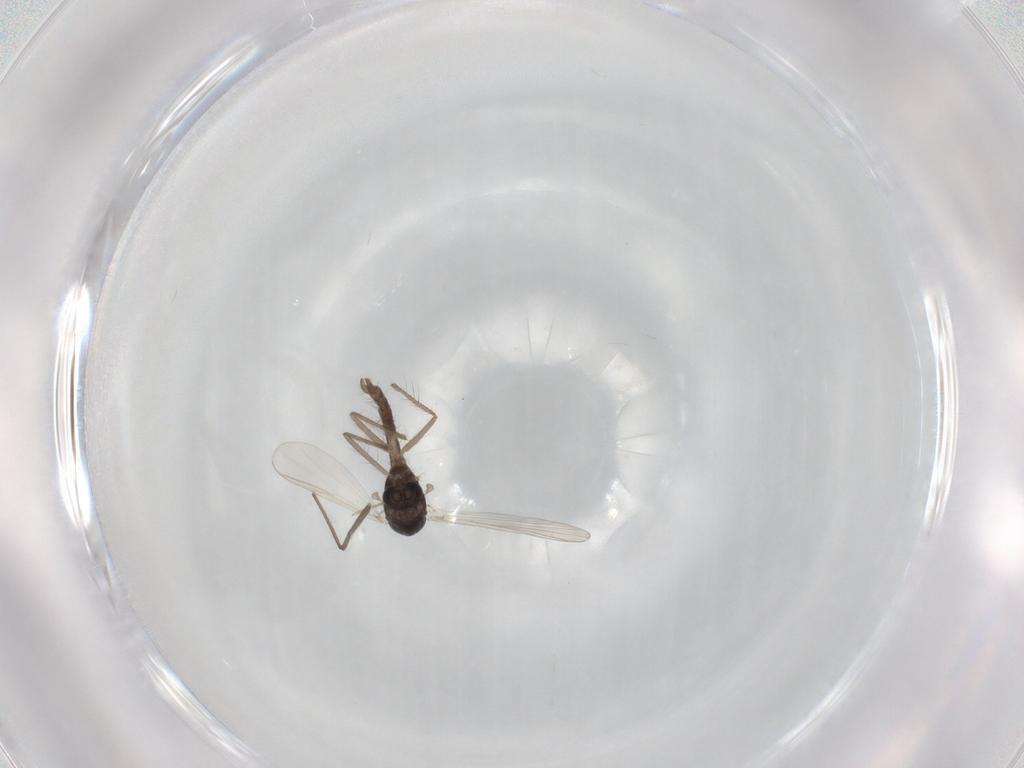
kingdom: Animalia
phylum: Arthropoda
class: Insecta
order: Diptera
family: Chironomidae
